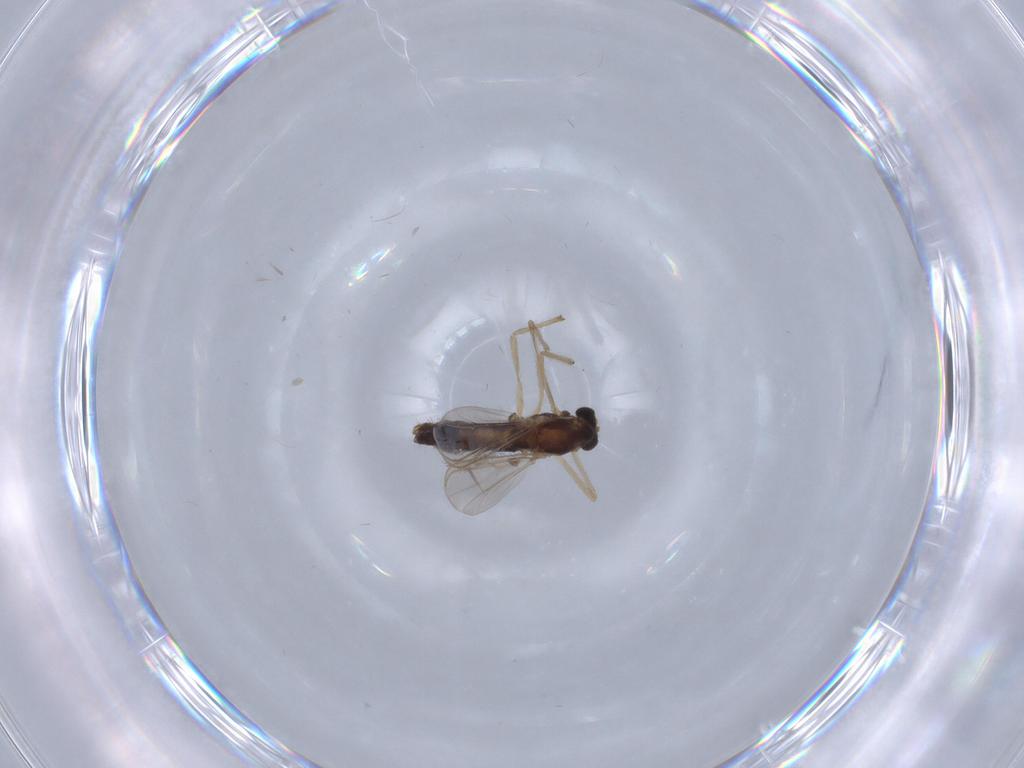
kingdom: Animalia
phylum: Arthropoda
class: Insecta
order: Diptera
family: Chironomidae
